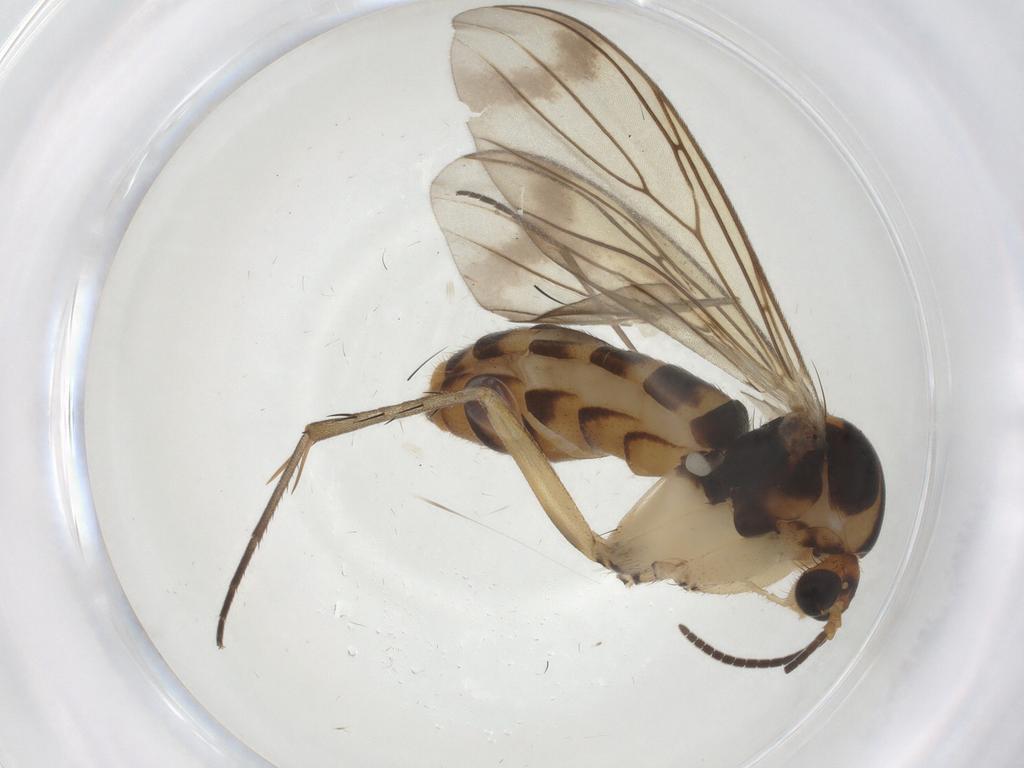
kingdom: Animalia
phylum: Arthropoda
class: Insecta
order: Diptera
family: Mycetophilidae
